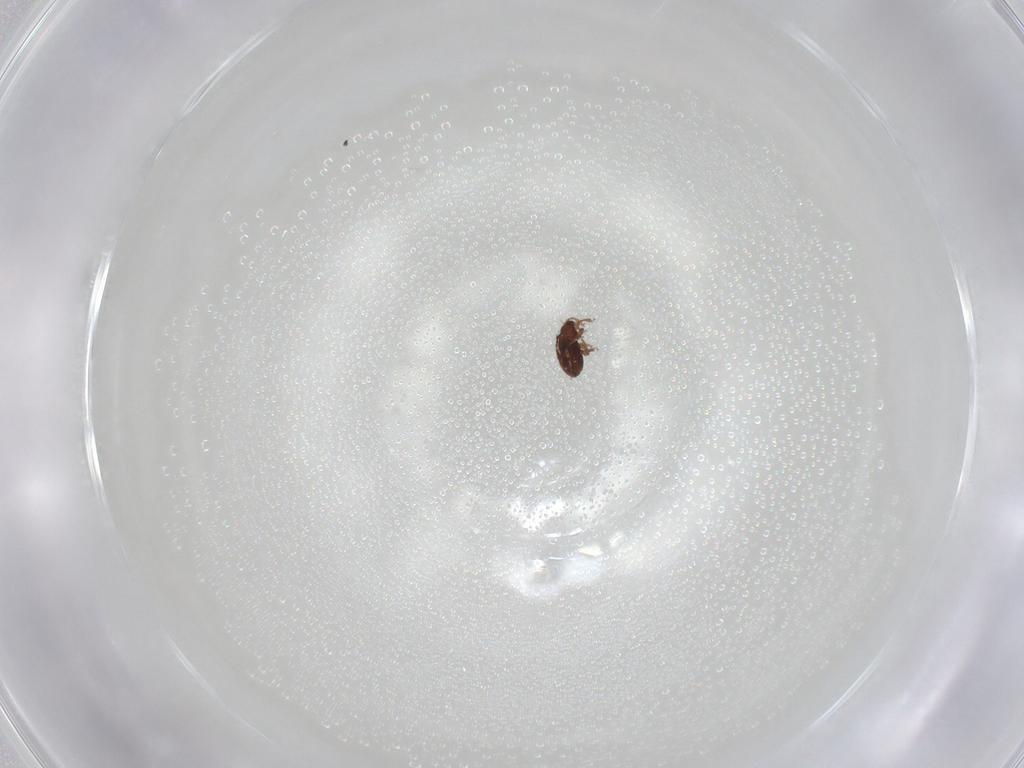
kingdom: Animalia
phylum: Arthropoda
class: Arachnida
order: Sarcoptiformes
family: Scheloribatidae
